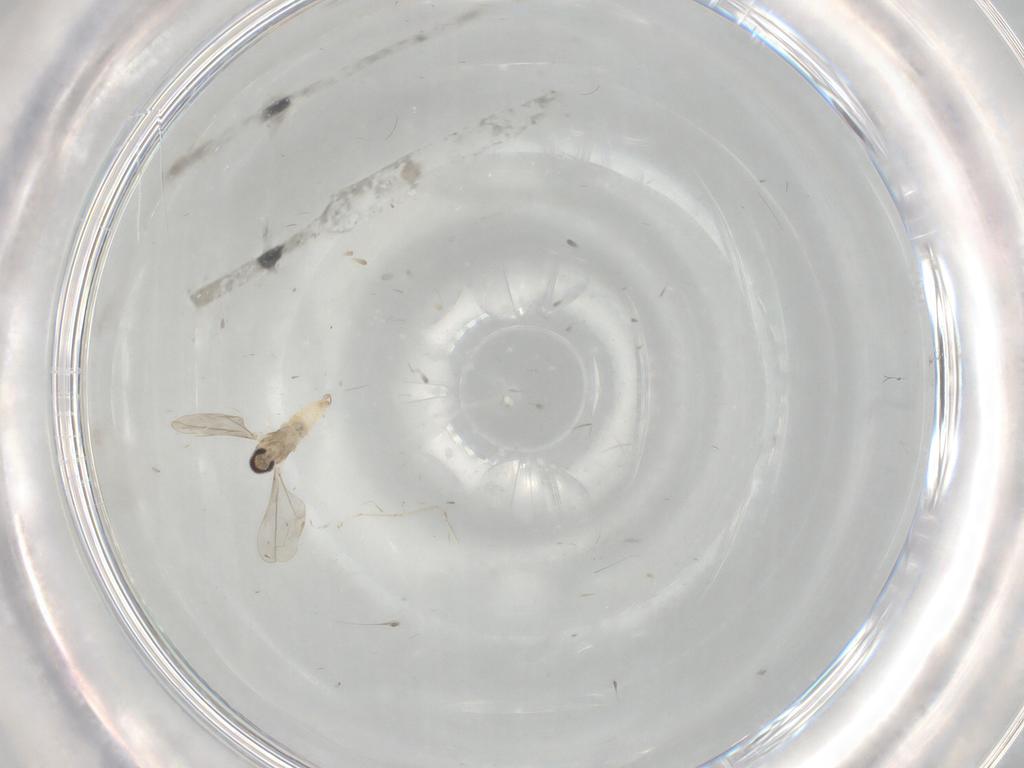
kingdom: Animalia
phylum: Arthropoda
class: Insecta
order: Diptera
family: Cecidomyiidae
